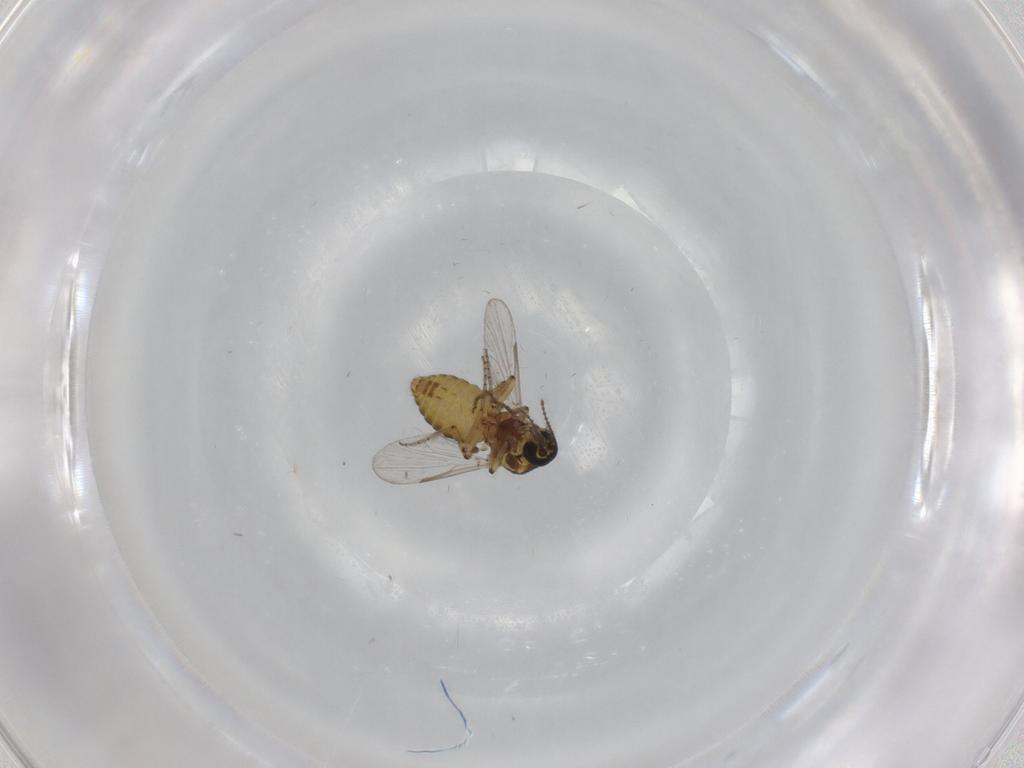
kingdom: Animalia
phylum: Arthropoda
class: Insecta
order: Diptera
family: Ceratopogonidae
